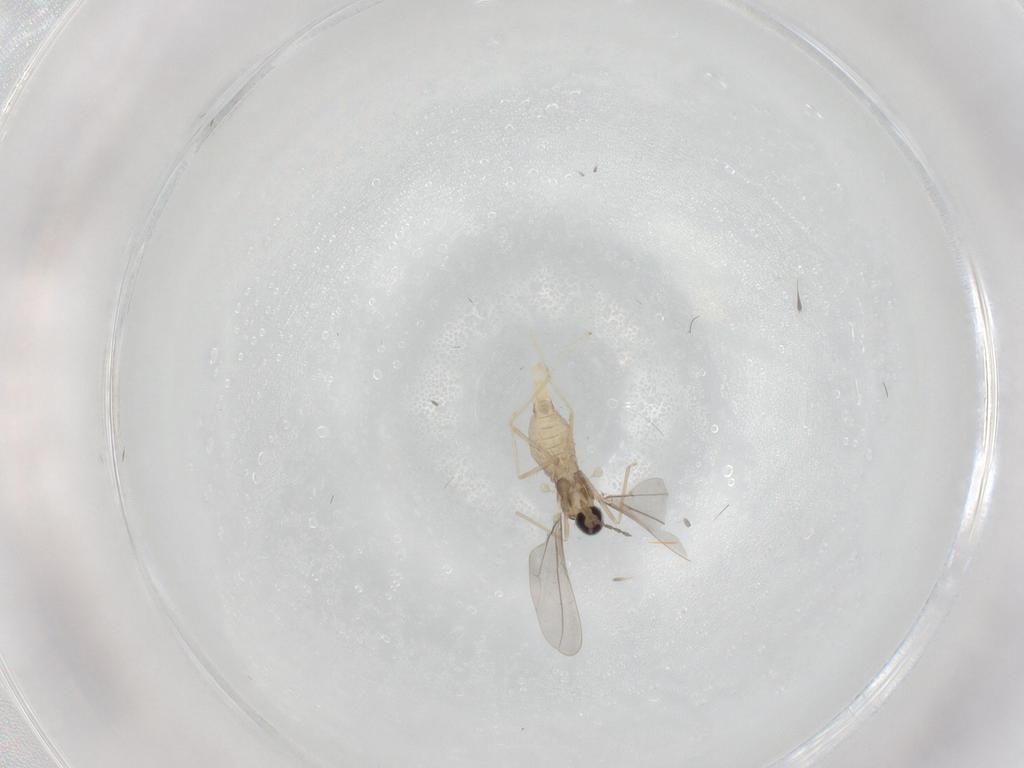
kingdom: Animalia
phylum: Arthropoda
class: Insecta
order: Diptera
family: Cecidomyiidae
